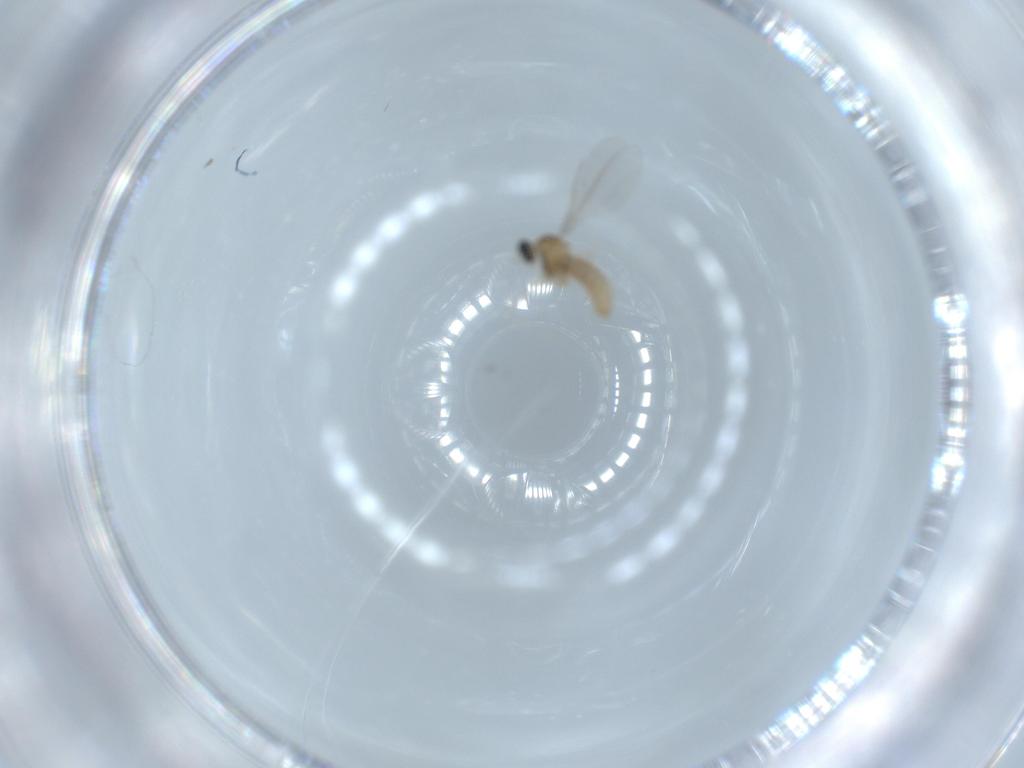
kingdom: Animalia
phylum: Arthropoda
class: Insecta
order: Diptera
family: Cecidomyiidae
